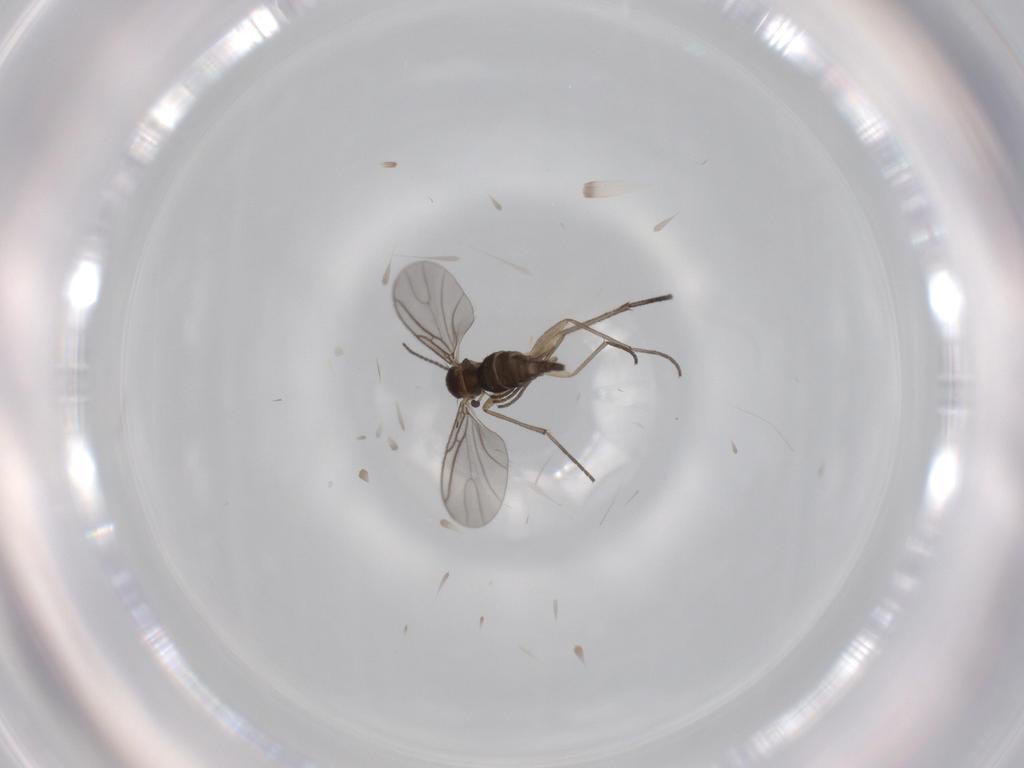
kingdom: Animalia
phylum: Arthropoda
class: Insecta
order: Diptera
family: Sciaridae
